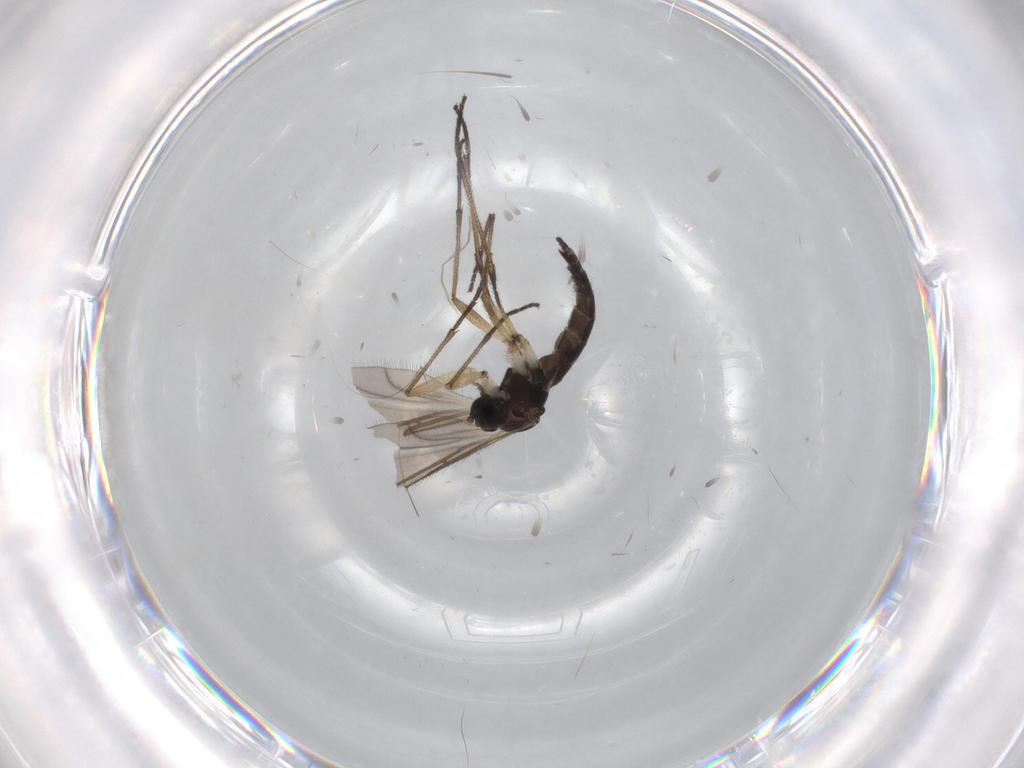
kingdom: Animalia
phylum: Arthropoda
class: Insecta
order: Diptera
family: Sciaridae
